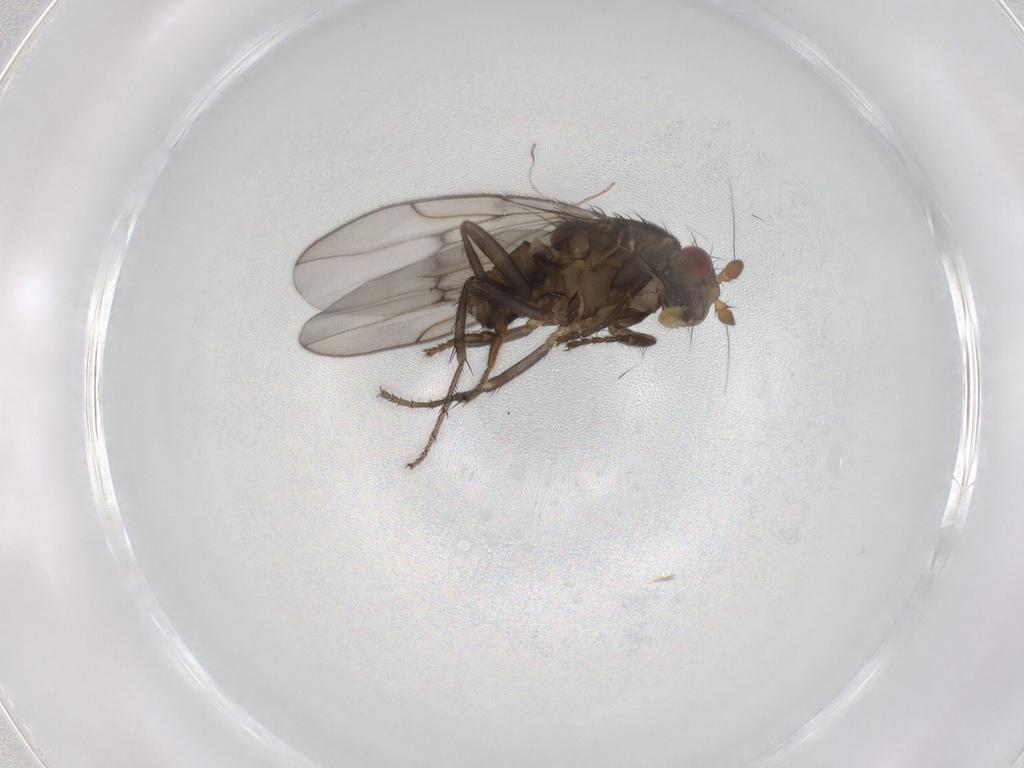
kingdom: Animalia
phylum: Arthropoda
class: Insecta
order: Diptera
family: Sphaeroceridae
